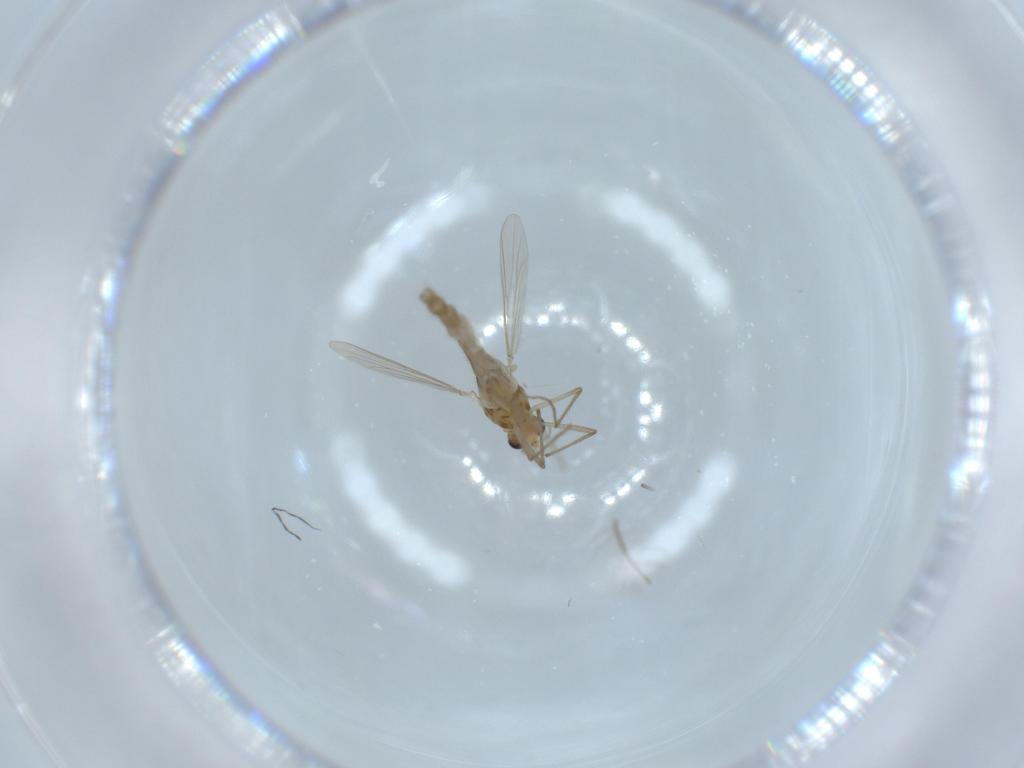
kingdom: Animalia
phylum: Arthropoda
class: Insecta
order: Diptera
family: Chironomidae
